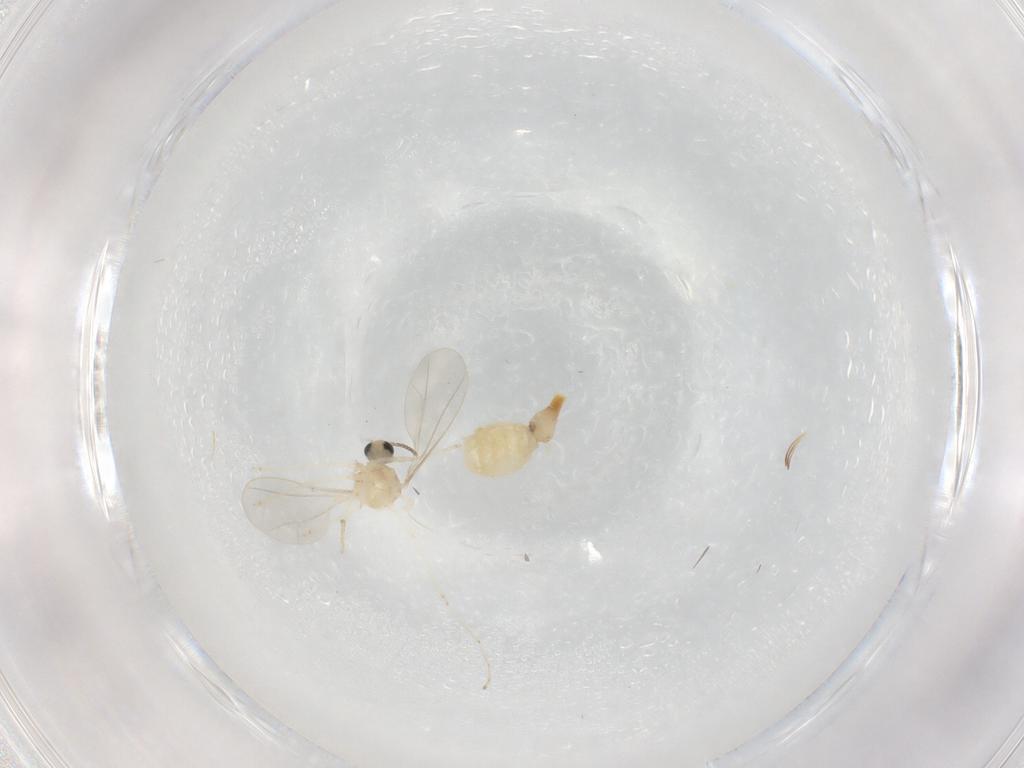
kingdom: Animalia
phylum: Arthropoda
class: Insecta
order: Diptera
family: Cecidomyiidae
